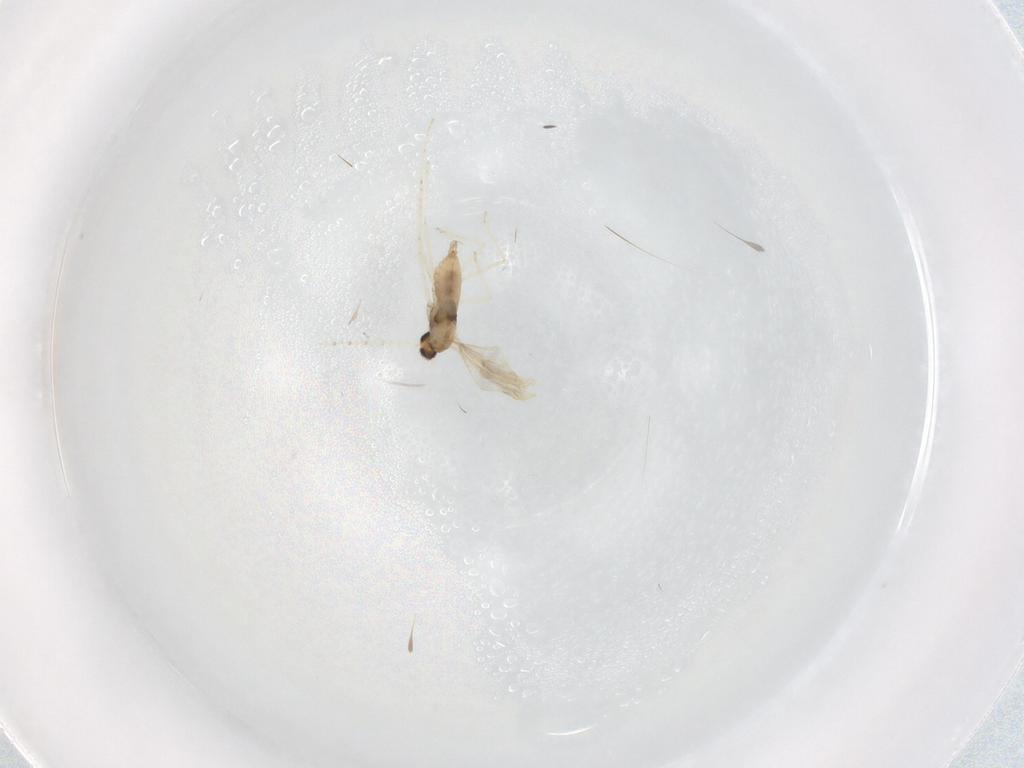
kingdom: Animalia
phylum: Arthropoda
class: Insecta
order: Diptera
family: Cecidomyiidae
